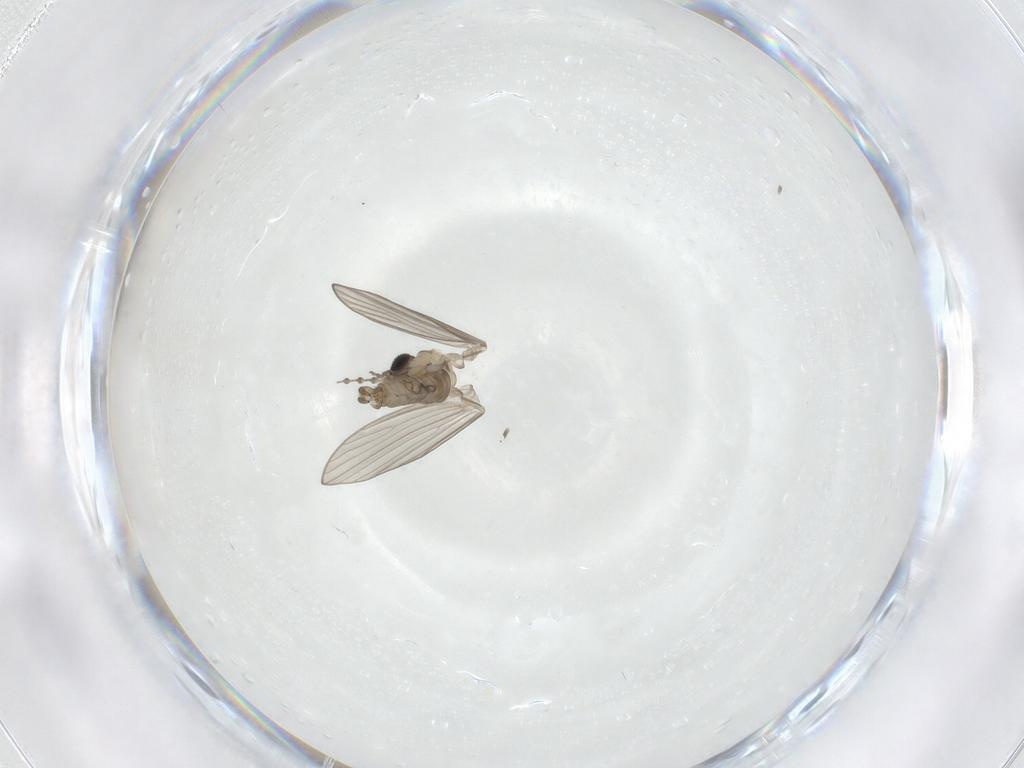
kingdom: Animalia
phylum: Arthropoda
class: Insecta
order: Diptera
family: Psychodidae
